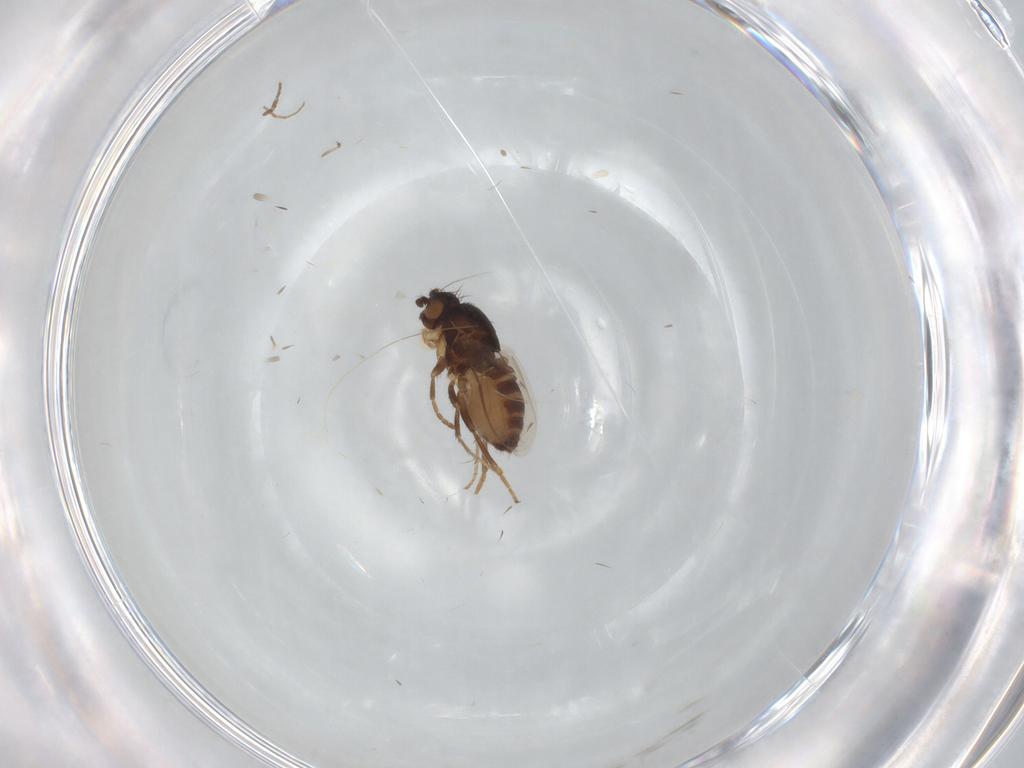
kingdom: Animalia
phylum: Arthropoda
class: Insecta
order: Diptera
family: Sphaeroceridae
